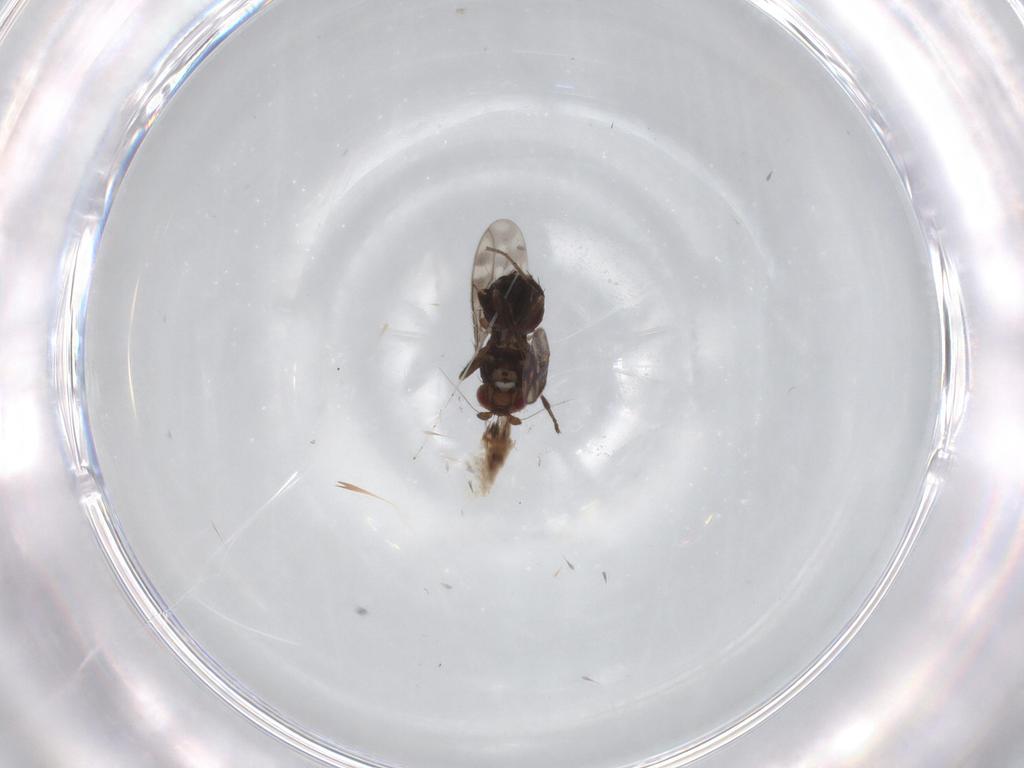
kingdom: Animalia
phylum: Arthropoda
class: Insecta
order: Diptera
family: Sphaeroceridae
